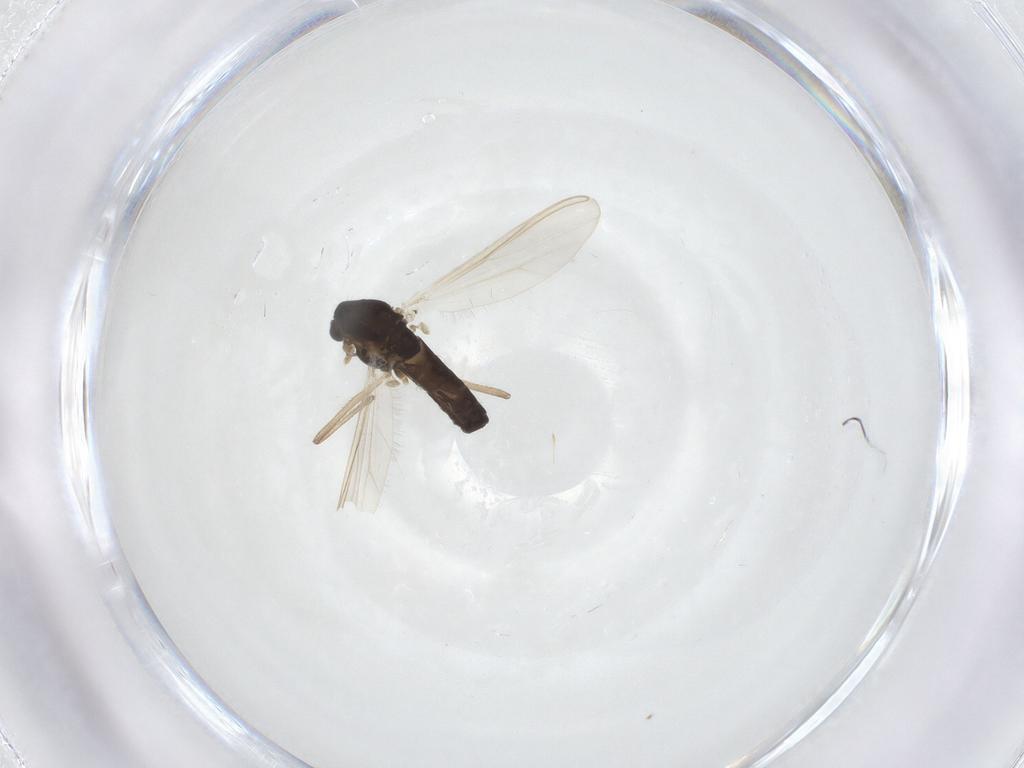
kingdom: Animalia
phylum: Arthropoda
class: Insecta
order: Diptera
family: Chironomidae
